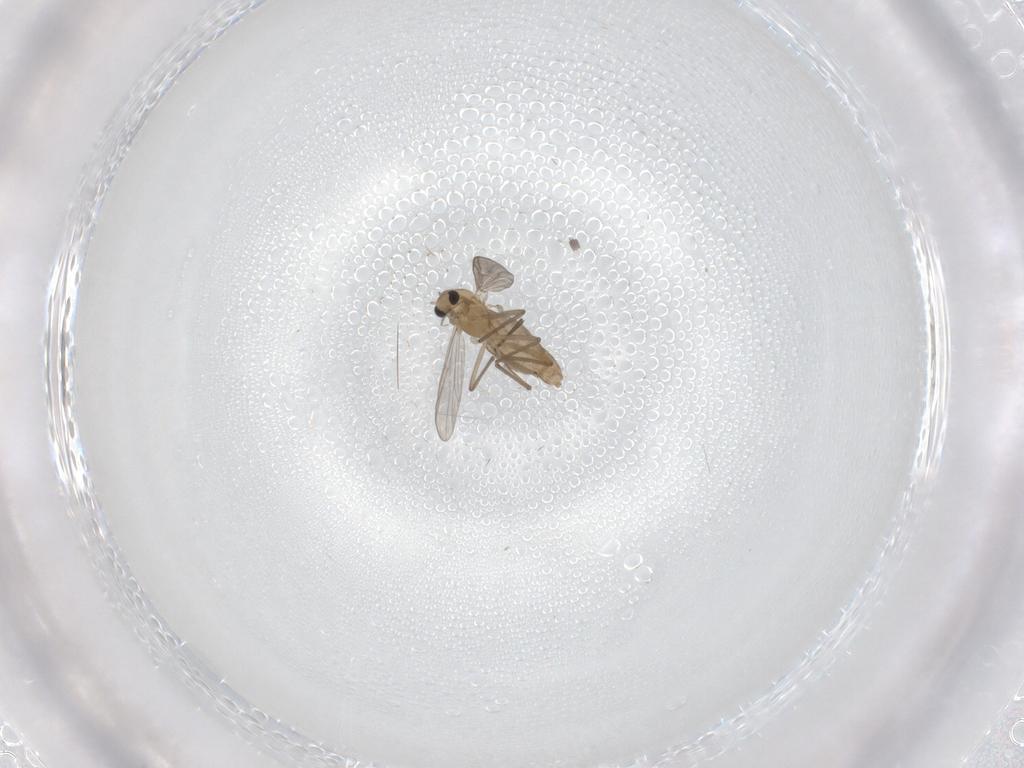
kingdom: Animalia
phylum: Arthropoda
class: Insecta
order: Diptera
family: Chironomidae
